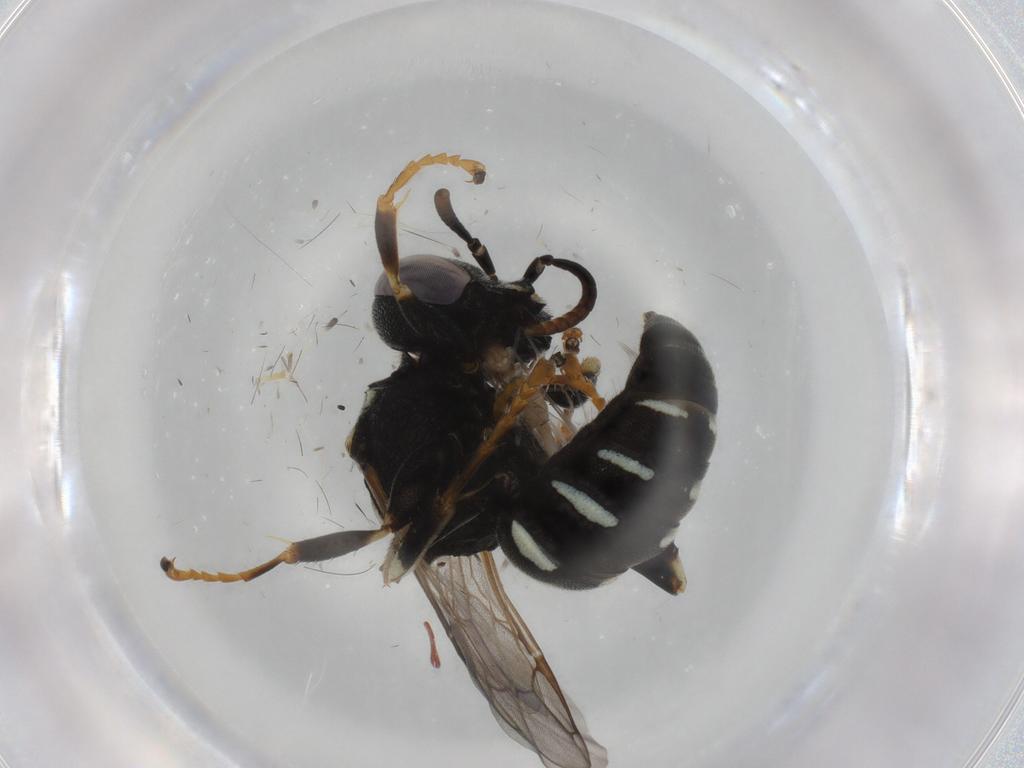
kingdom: Animalia
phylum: Arthropoda
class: Insecta
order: Hymenoptera
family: Crabronidae
